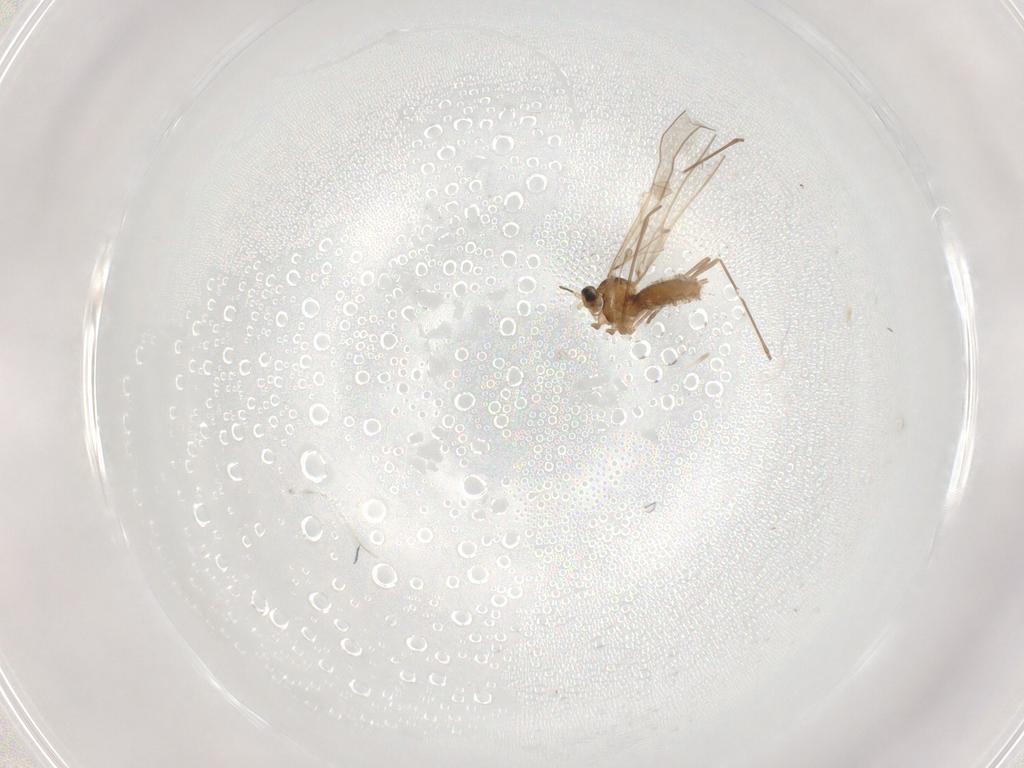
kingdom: Animalia
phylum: Arthropoda
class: Insecta
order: Diptera
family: Cecidomyiidae
